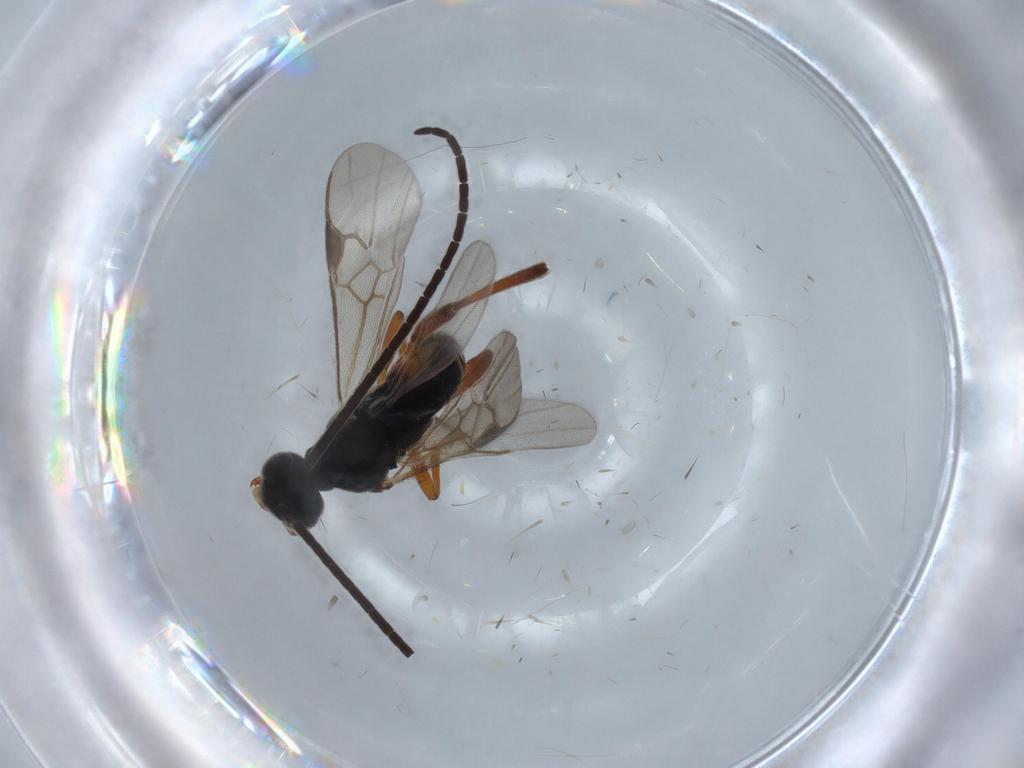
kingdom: Animalia
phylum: Arthropoda
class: Insecta
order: Hymenoptera
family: Braconidae
